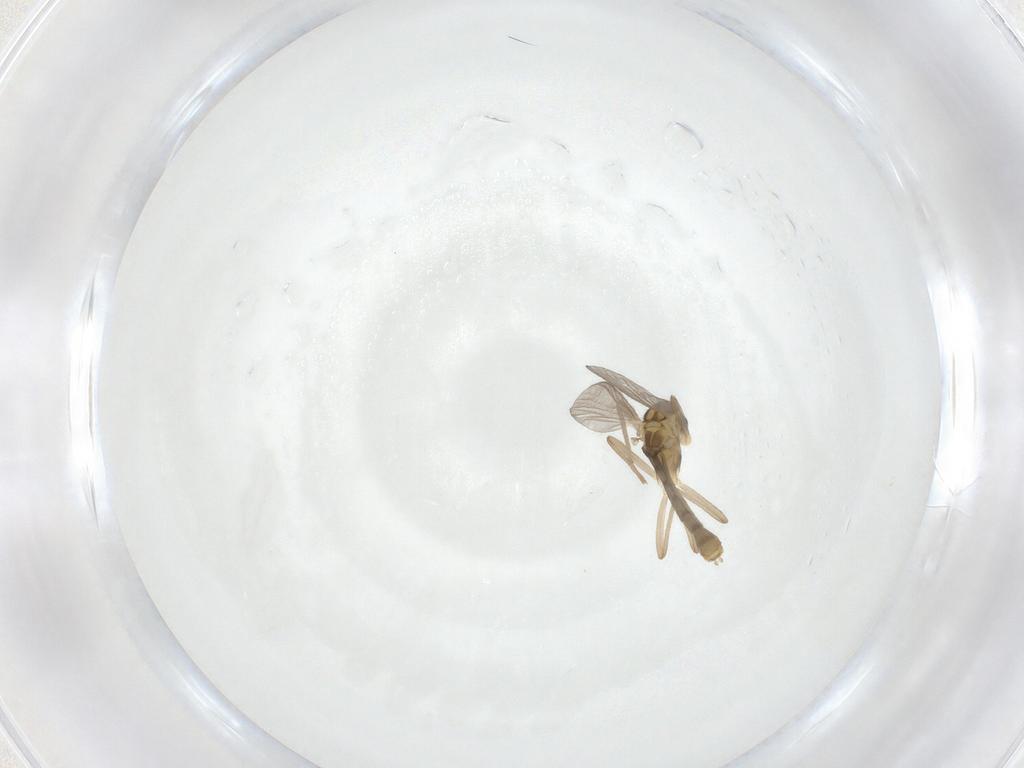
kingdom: Animalia
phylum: Arthropoda
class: Insecta
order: Diptera
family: Chironomidae
